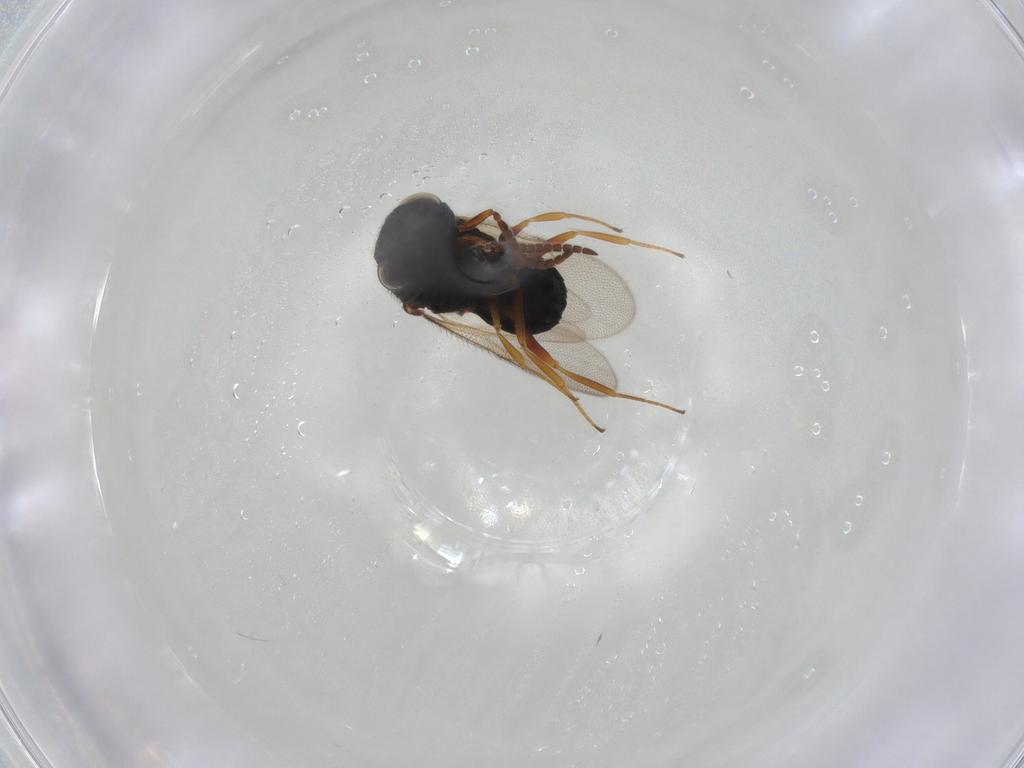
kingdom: Animalia
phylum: Arthropoda
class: Insecta
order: Hymenoptera
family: Scelionidae
